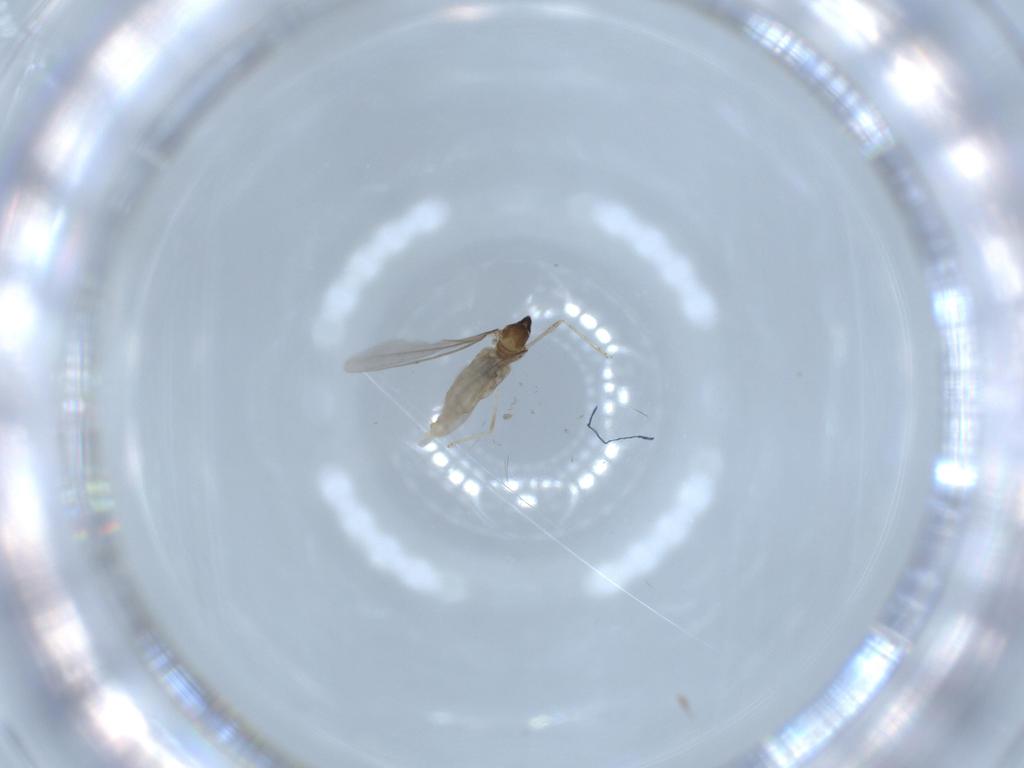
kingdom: Animalia
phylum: Arthropoda
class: Insecta
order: Diptera
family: Cecidomyiidae
